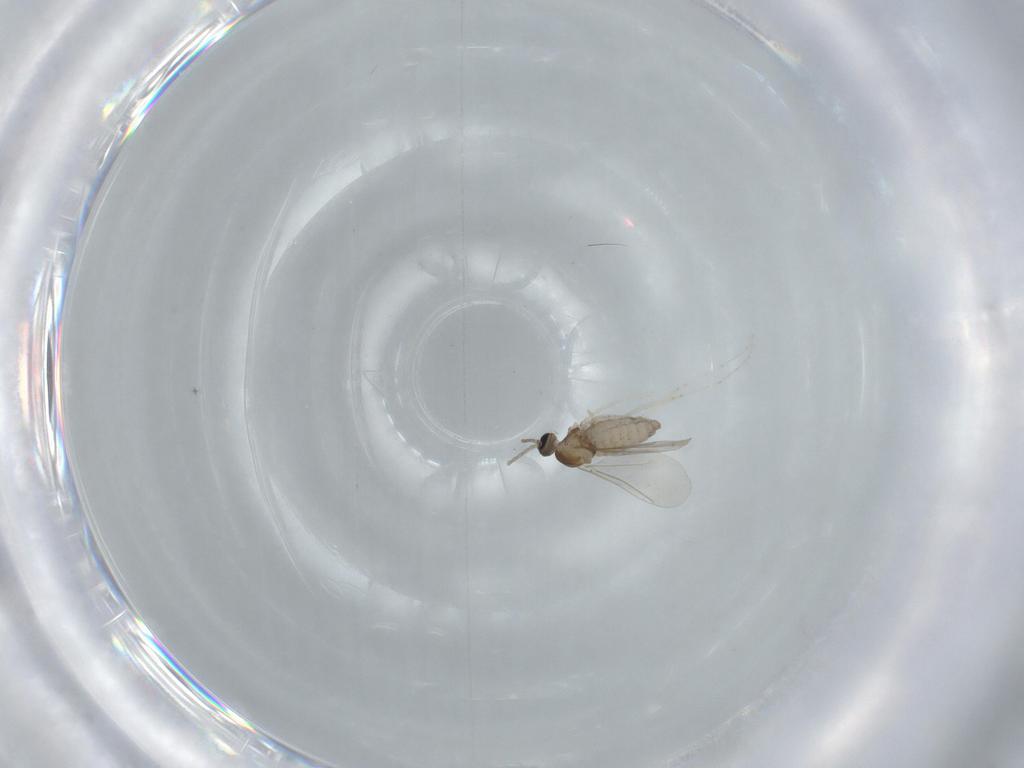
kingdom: Animalia
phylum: Arthropoda
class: Insecta
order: Diptera
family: Cecidomyiidae
